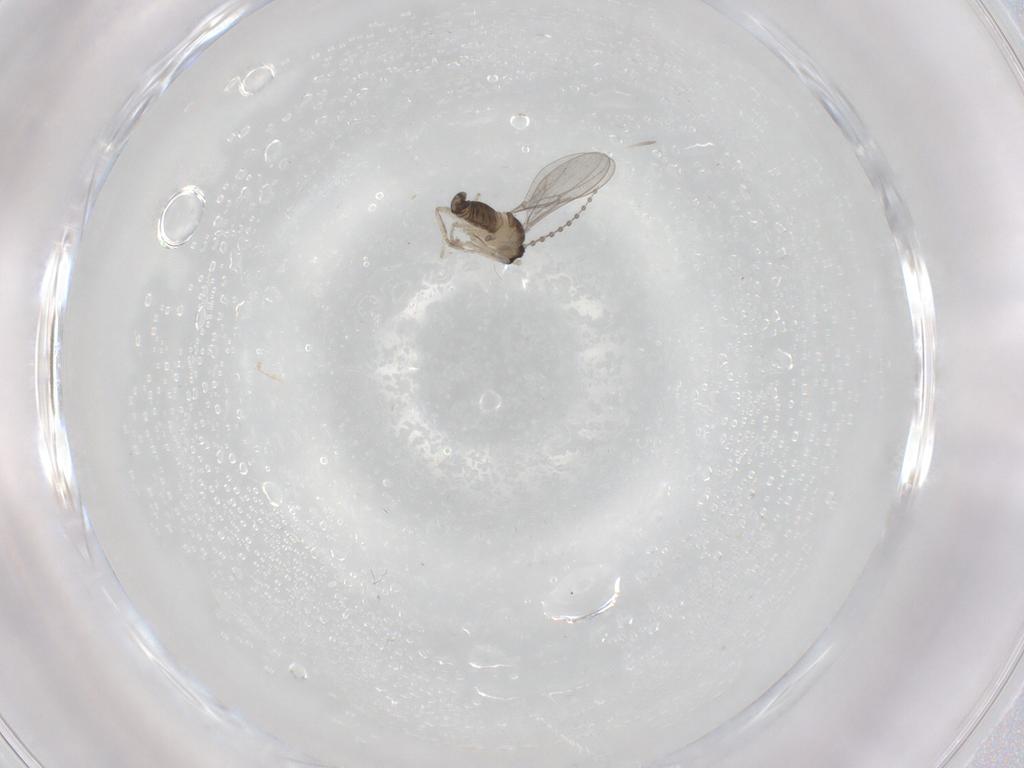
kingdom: Animalia
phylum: Arthropoda
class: Insecta
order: Diptera
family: Cecidomyiidae
